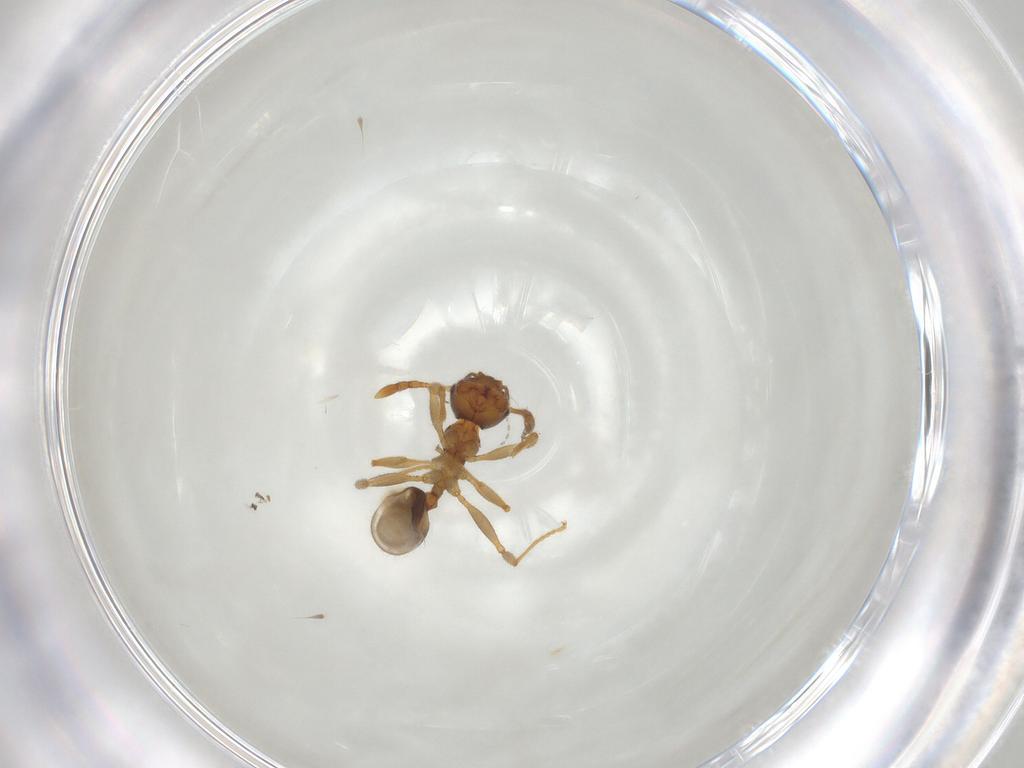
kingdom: Animalia
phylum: Arthropoda
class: Insecta
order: Hymenoptera
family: Formicidae
